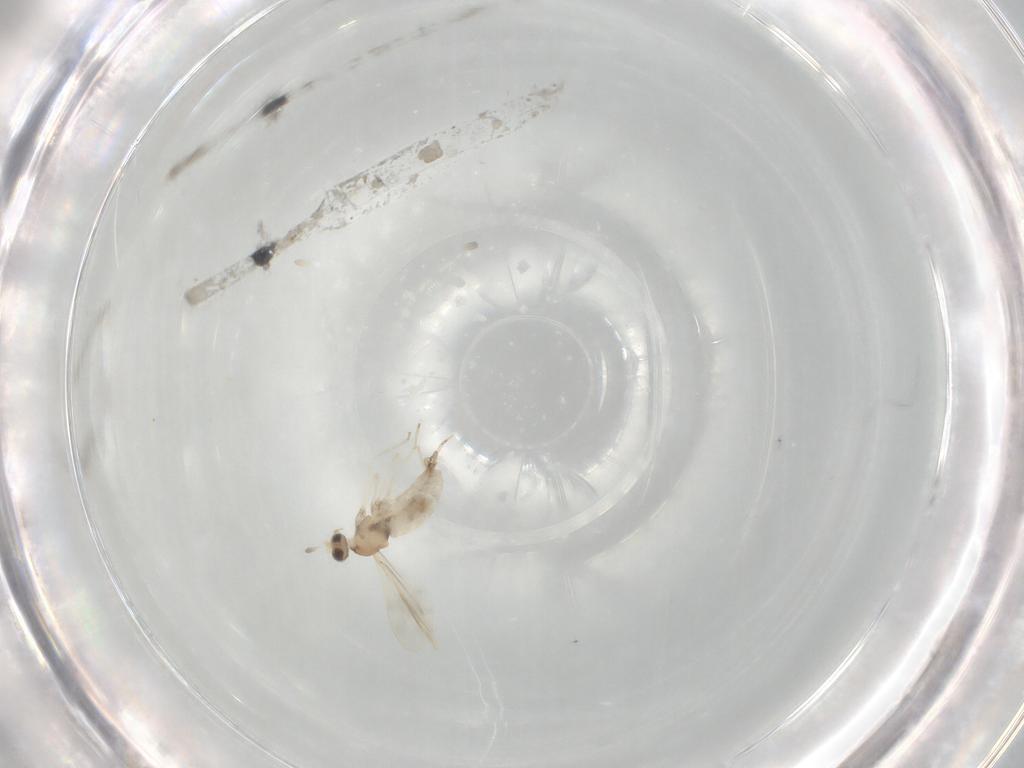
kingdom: Animalia
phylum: Arthropoda
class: Insecta
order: Diptera
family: Cecidomyiidae
